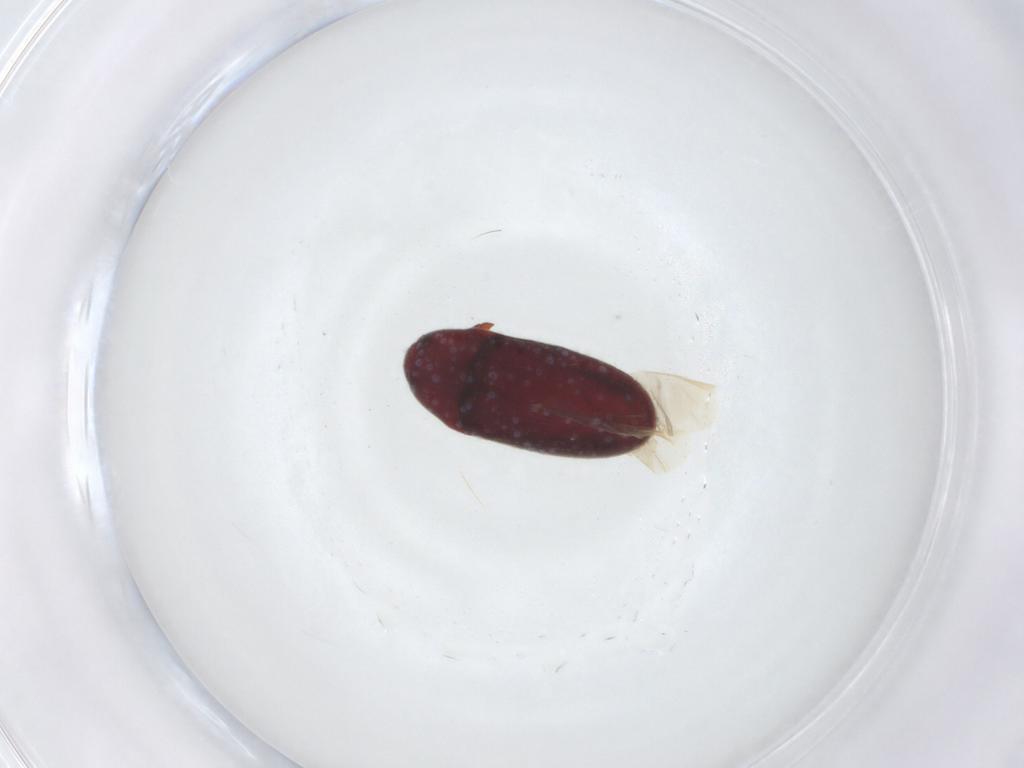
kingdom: Animalia
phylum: Arthropoda
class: Insecta
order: Coleoptera
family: Throscidae
